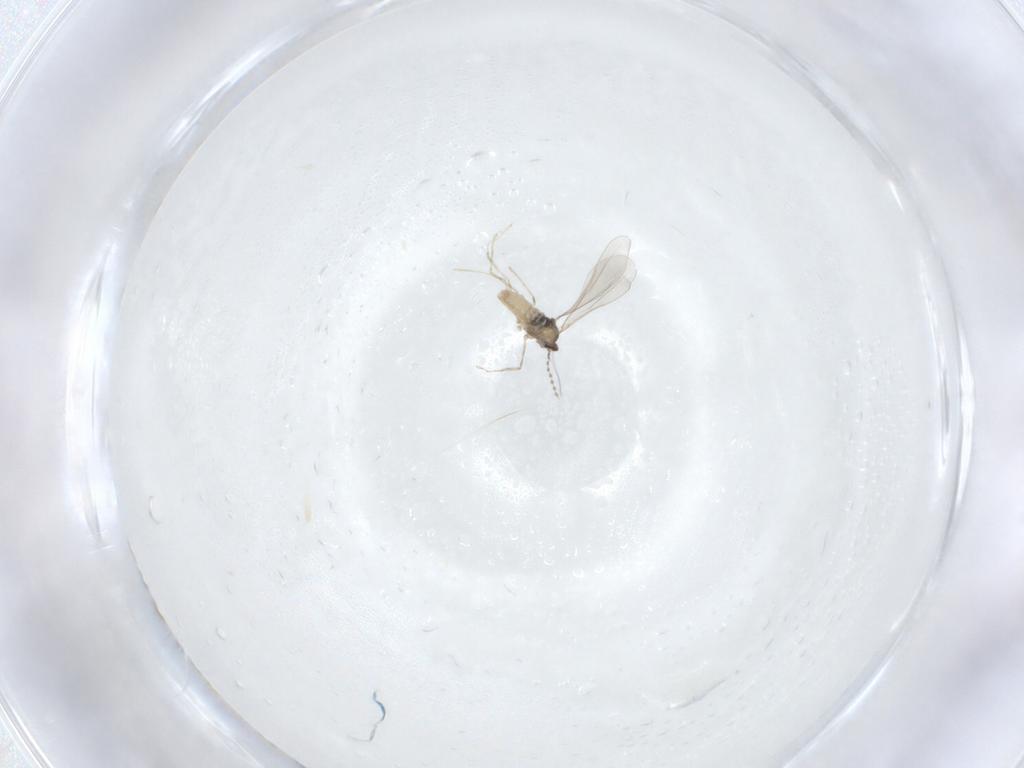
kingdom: Animalia
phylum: Arthropoda
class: Insecta
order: Diptera
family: Cecidomyiidae
